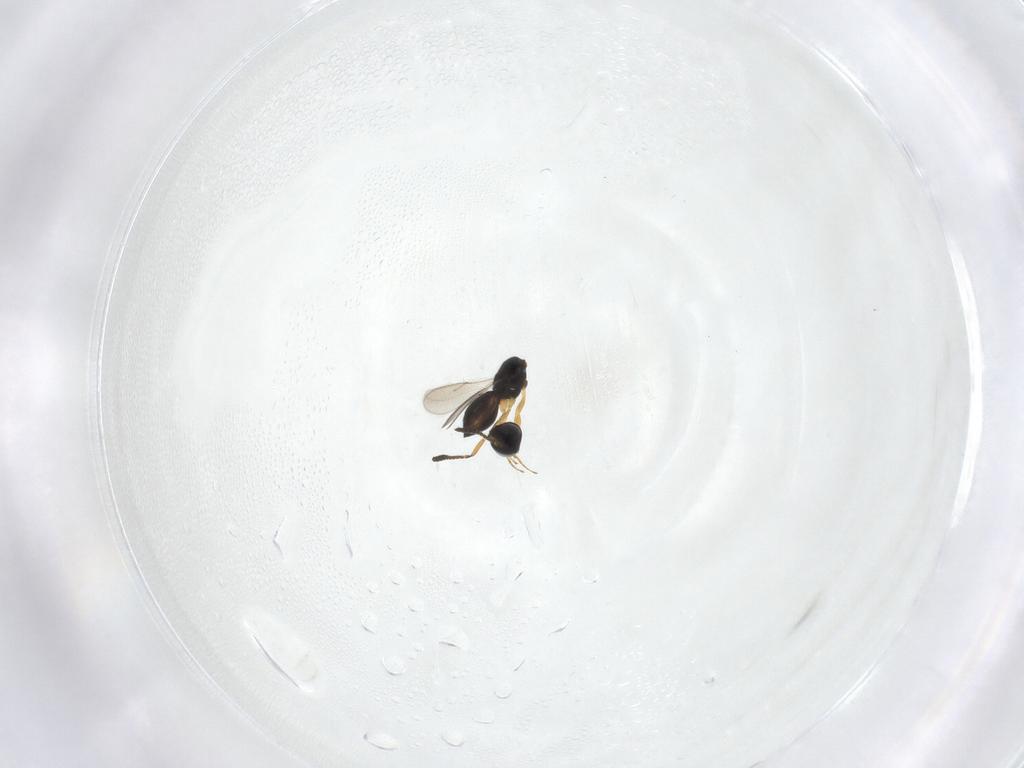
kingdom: Animalia
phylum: Arthropoda
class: Insecta
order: Hymenoptera
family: Scelionidae
